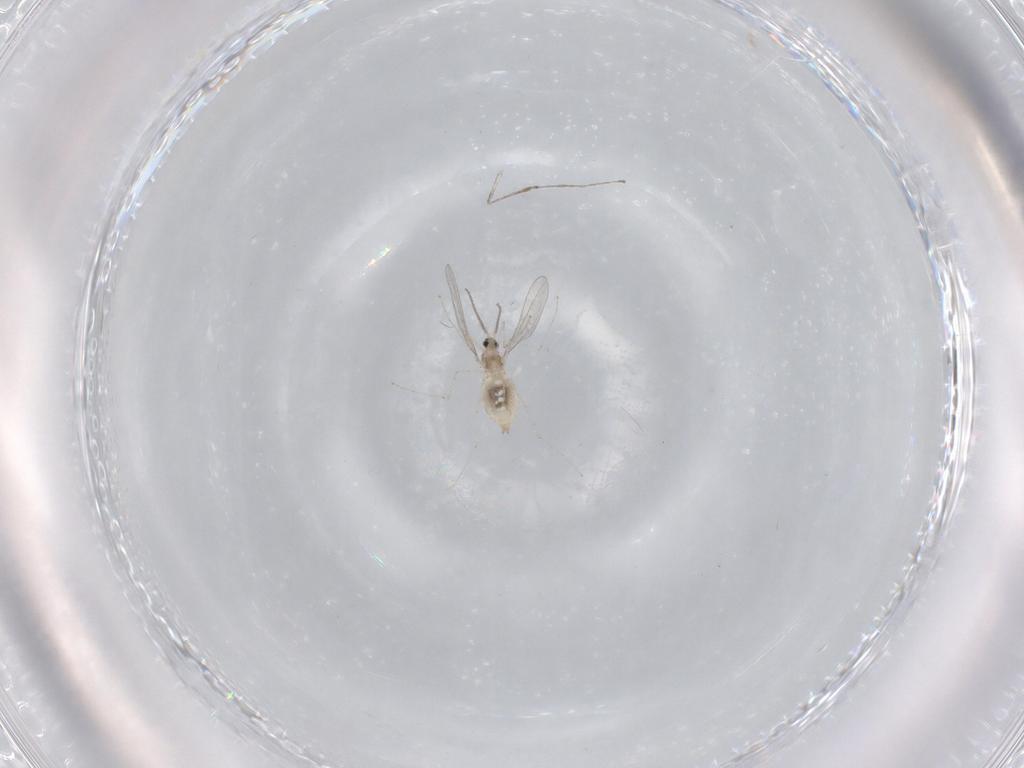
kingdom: Animalia
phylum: Arthropoda
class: Insecta
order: Diptera
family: Cecidomyiidae
